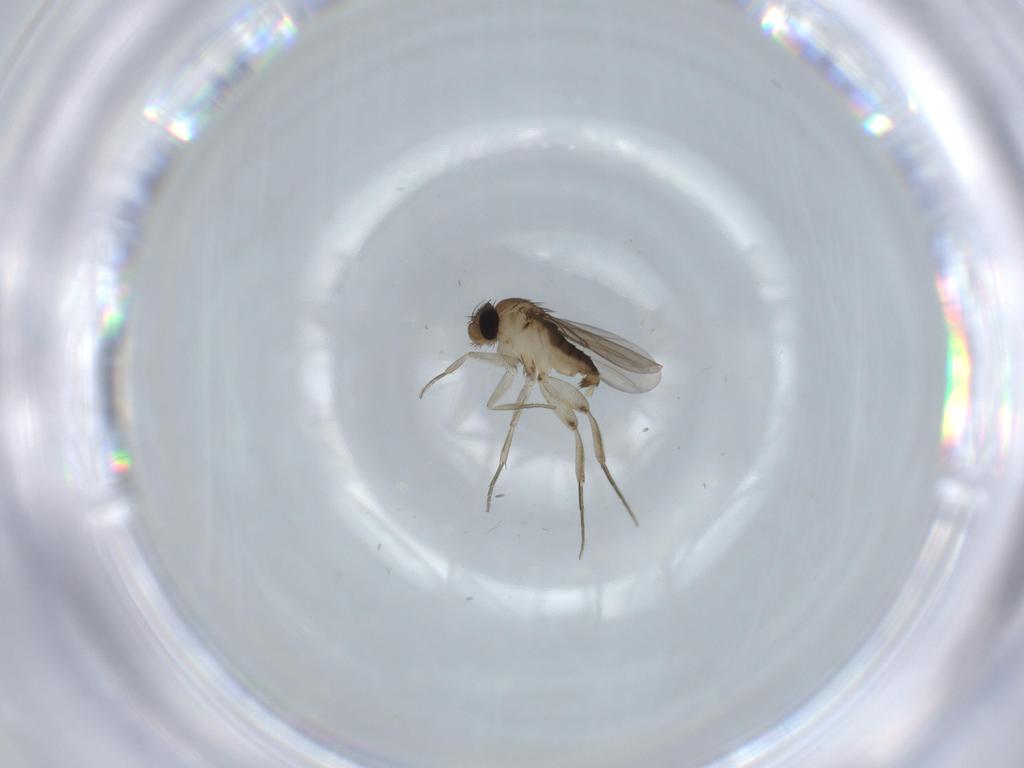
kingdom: Animalia
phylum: Arthropoda
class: Insecta
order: Diptera
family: Phoridae
